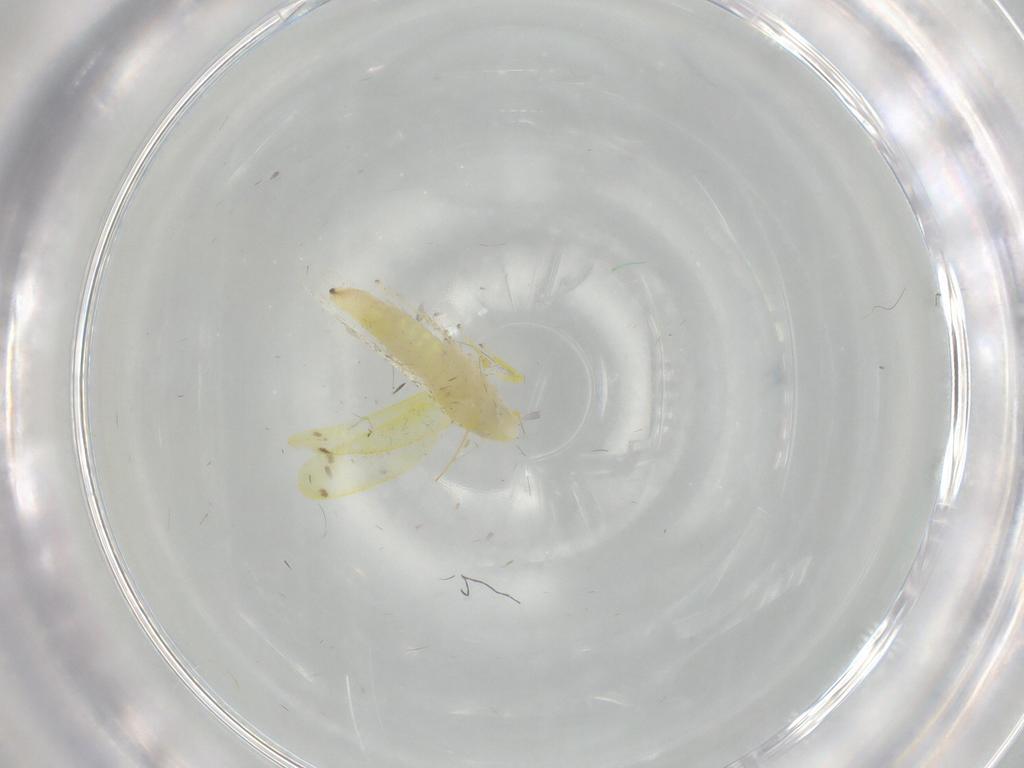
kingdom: Animalia
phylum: Arthropoda
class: Insecta
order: Hemiptera
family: Cicadellidae
